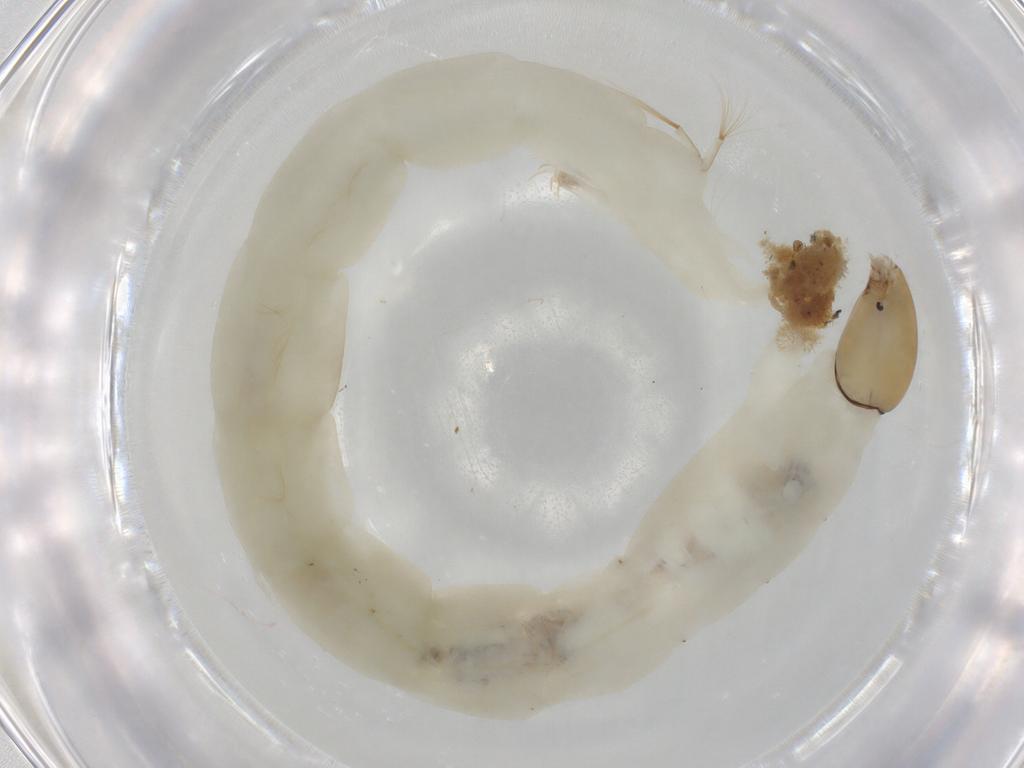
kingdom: Animalia
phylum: Arthropoda
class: Insecta
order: Diptera
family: Chironomidae
